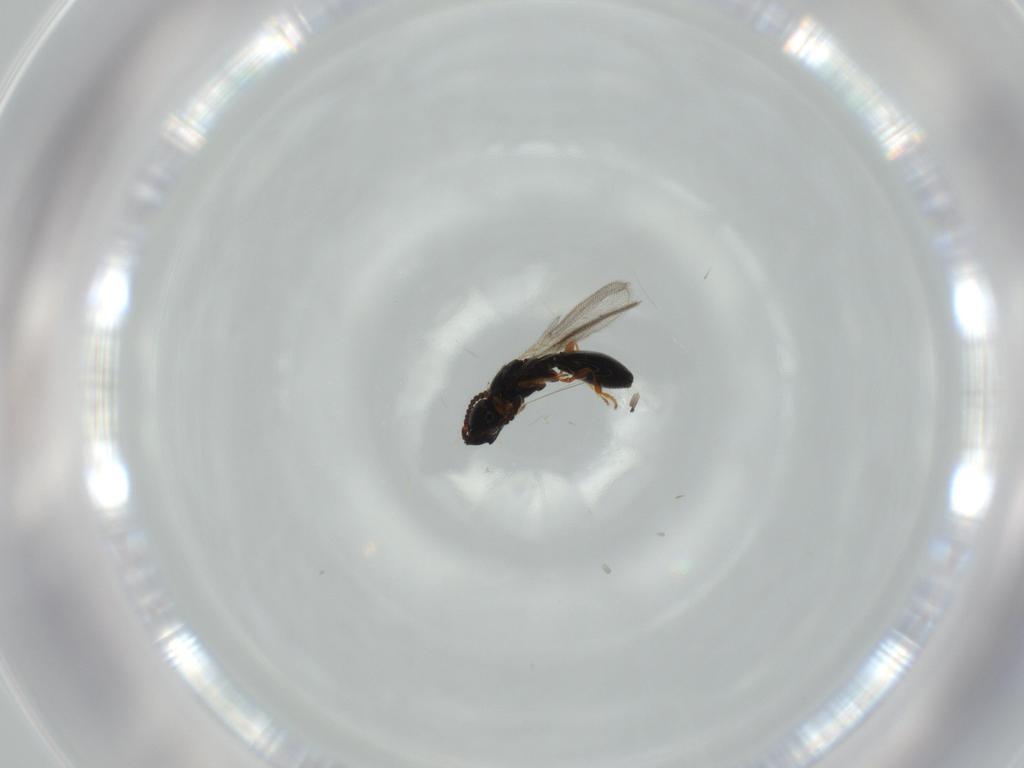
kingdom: Animalia
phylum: Arthropoda
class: Insecta
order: Hymenoptera
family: Diapriidae
